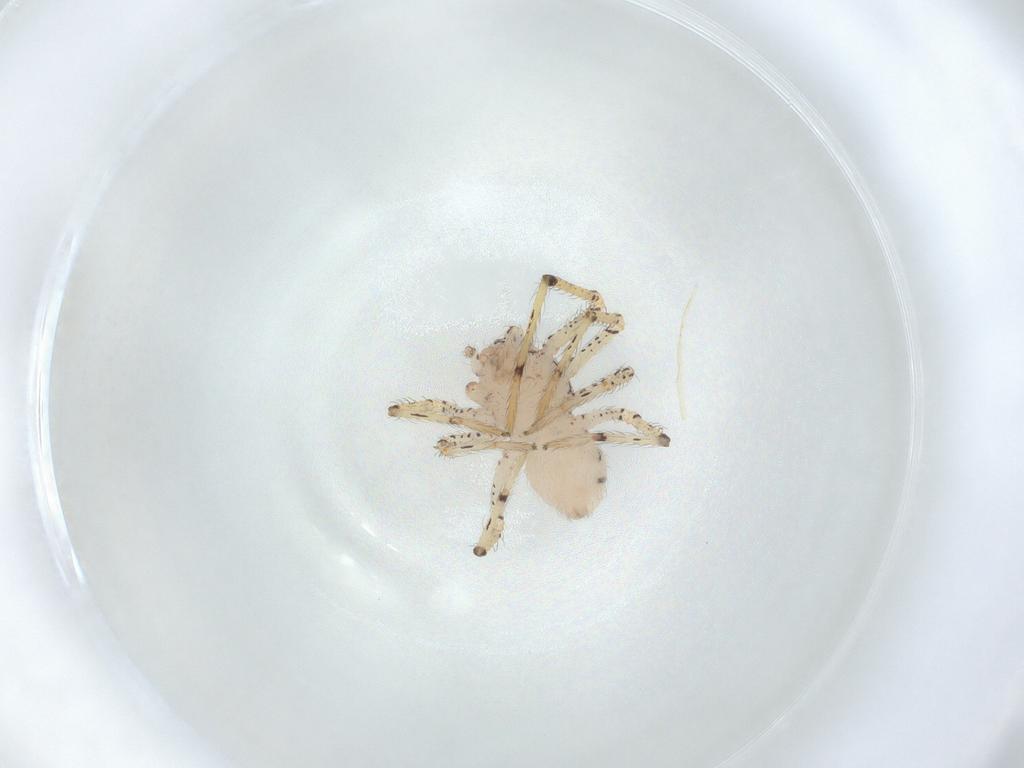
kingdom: Animalia
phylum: Arthropoda
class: Arachnida
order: Araneae
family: Scytodidae
